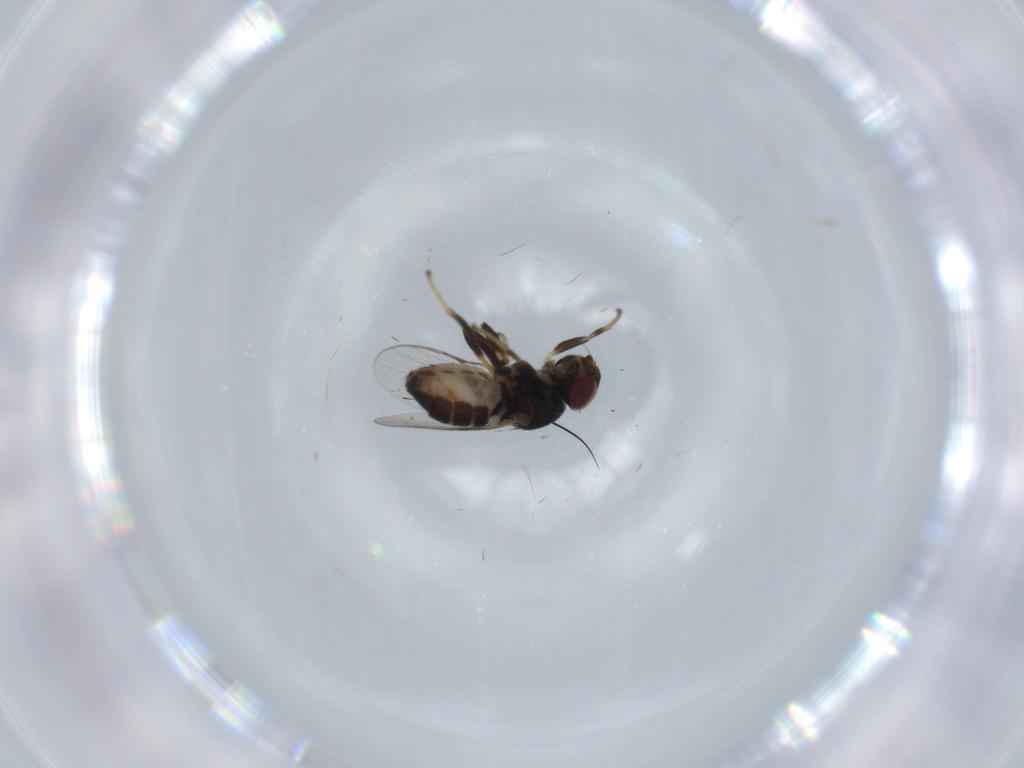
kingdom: Animalia
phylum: Arthropoda
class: Insecta
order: Diptera
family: Chloropidae
